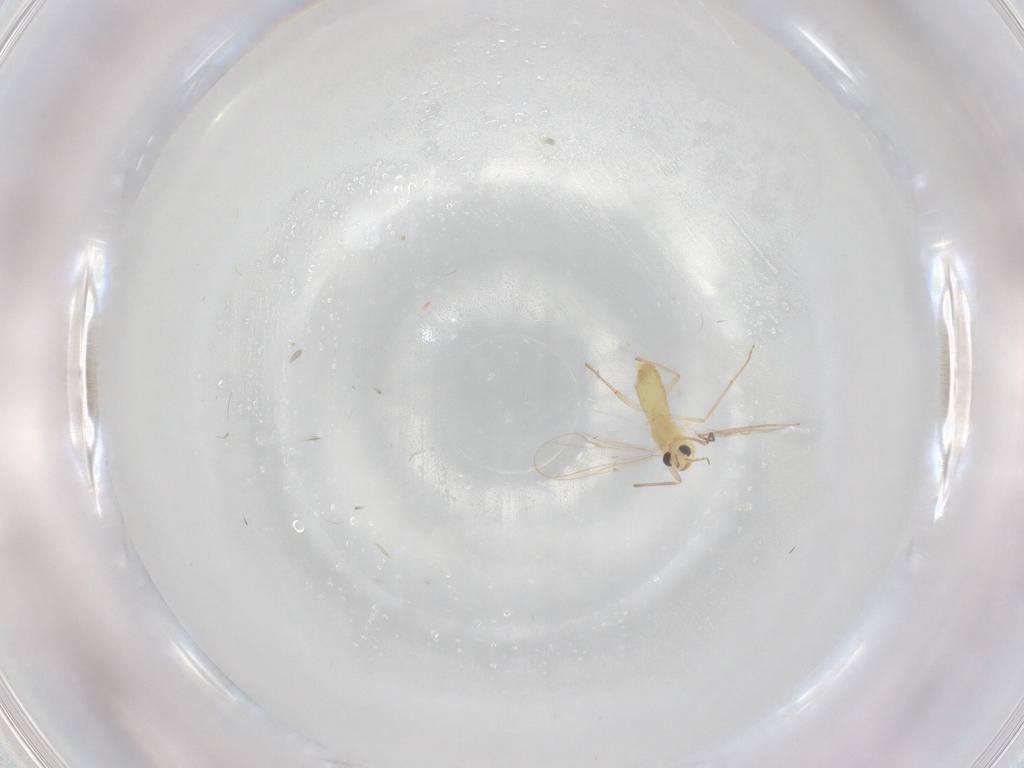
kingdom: Animalia
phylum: Arthropoda
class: Insecta
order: Diptera
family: Chironomidae
